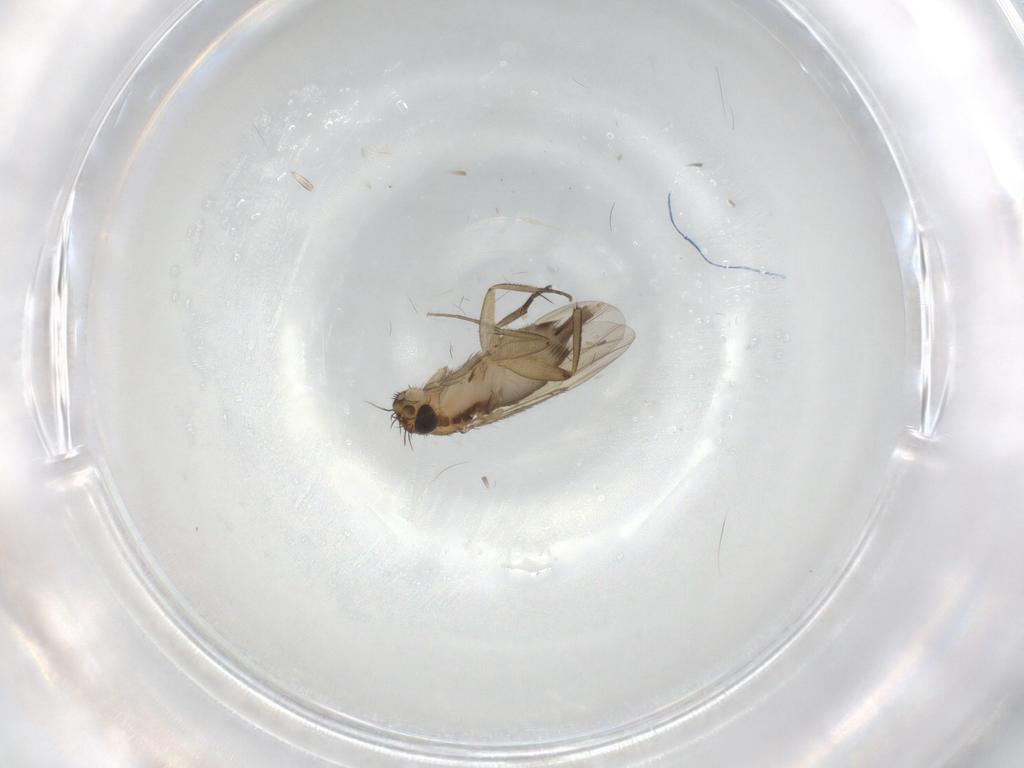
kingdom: Animalia
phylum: Arthropoda
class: Insecta
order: Diptera
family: Phoridae
